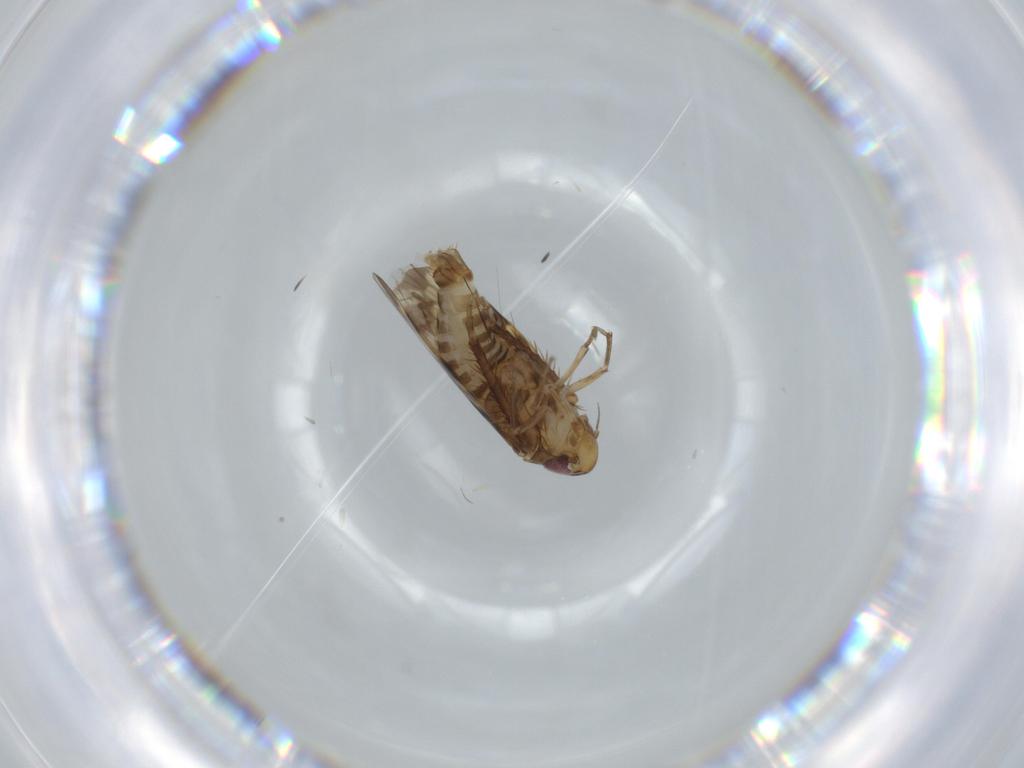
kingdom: Animalia
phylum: Arthropoda
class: Insecta
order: Hemiptera
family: Cicadellidae
